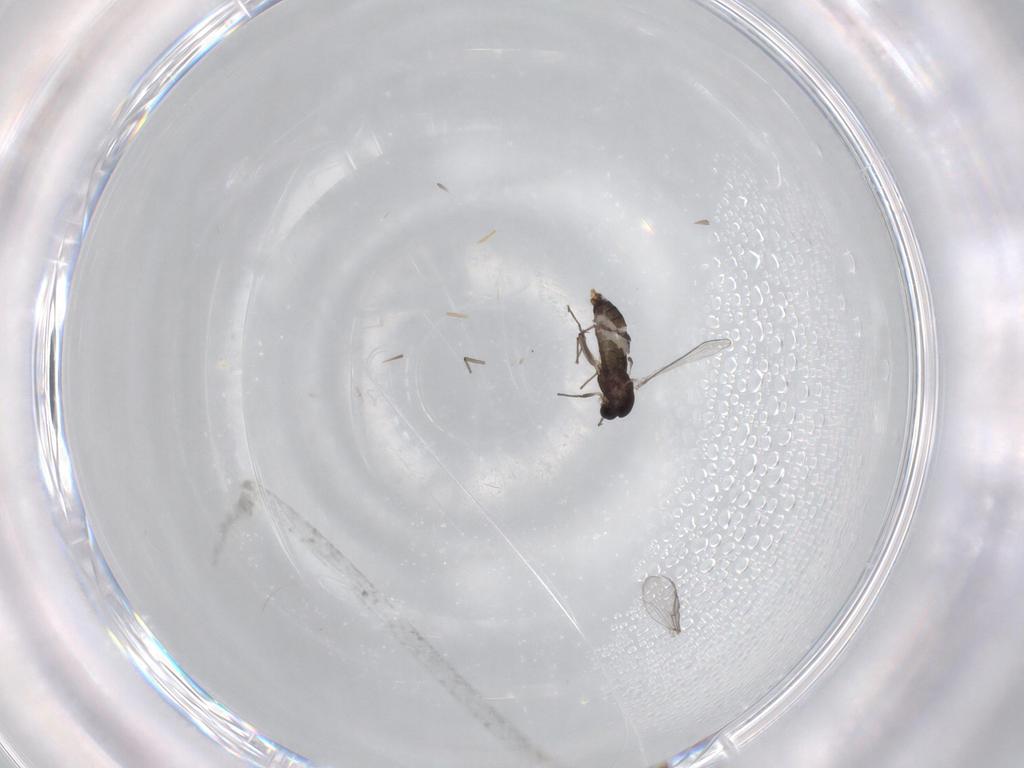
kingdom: Animalia
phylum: Arthropoda
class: Insecta
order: Diptera
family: Chironomidae
